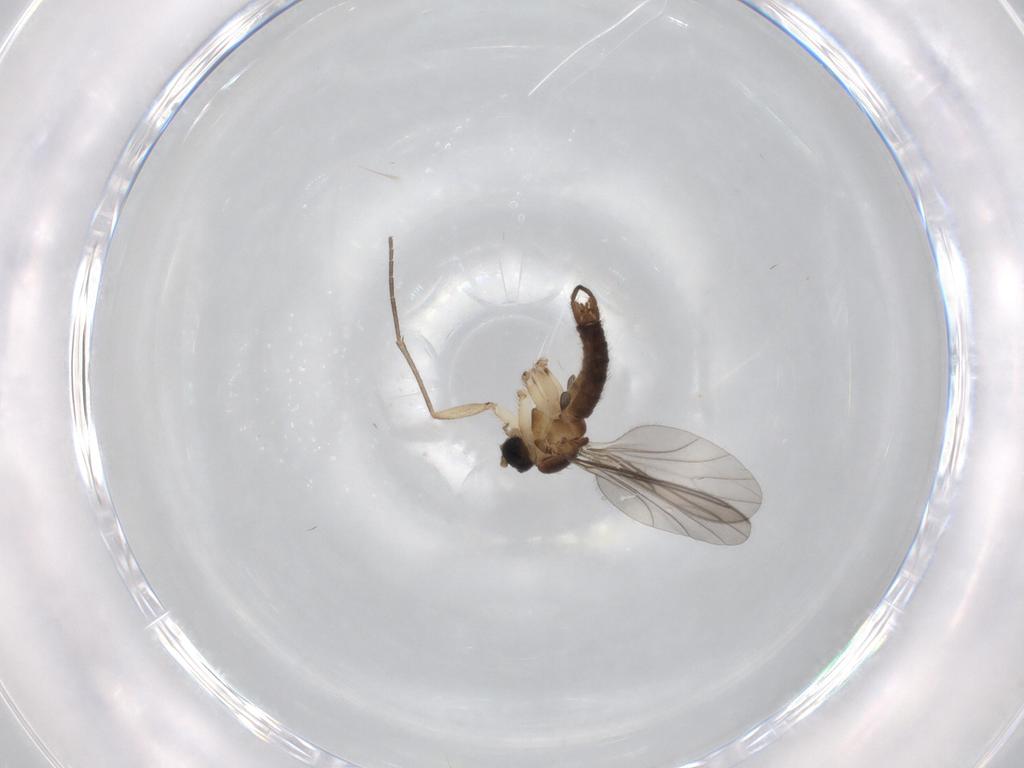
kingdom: Animalia
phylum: Arthropoda
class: Insecta
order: Diptera
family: Sciaridae
